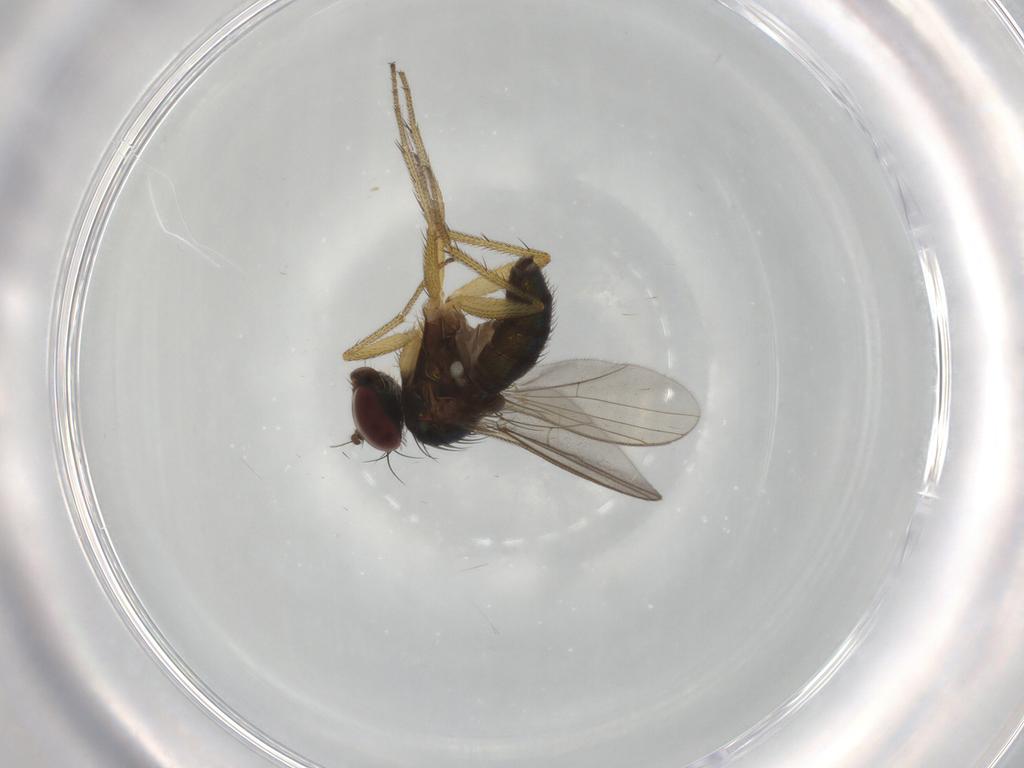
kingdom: Animalia
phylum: Arthropoda
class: Insecta
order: Diptera
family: Dolichopodidae
